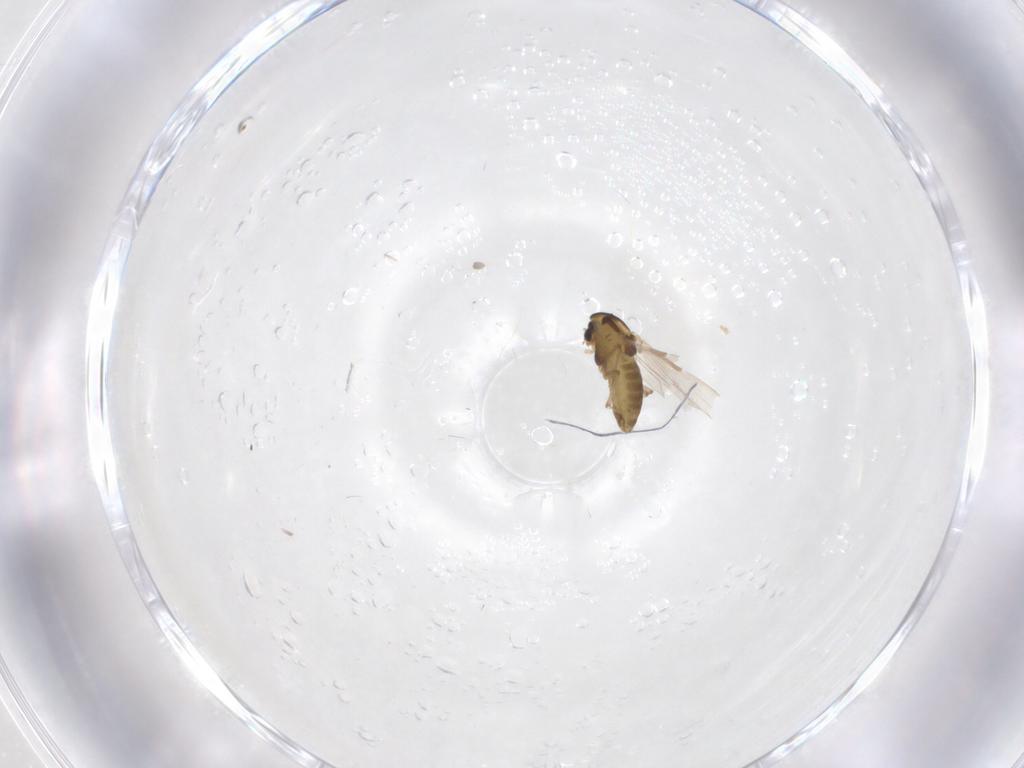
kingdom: Animalia
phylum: Arthropoda
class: Insecta
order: Diptera
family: Chironomidae
